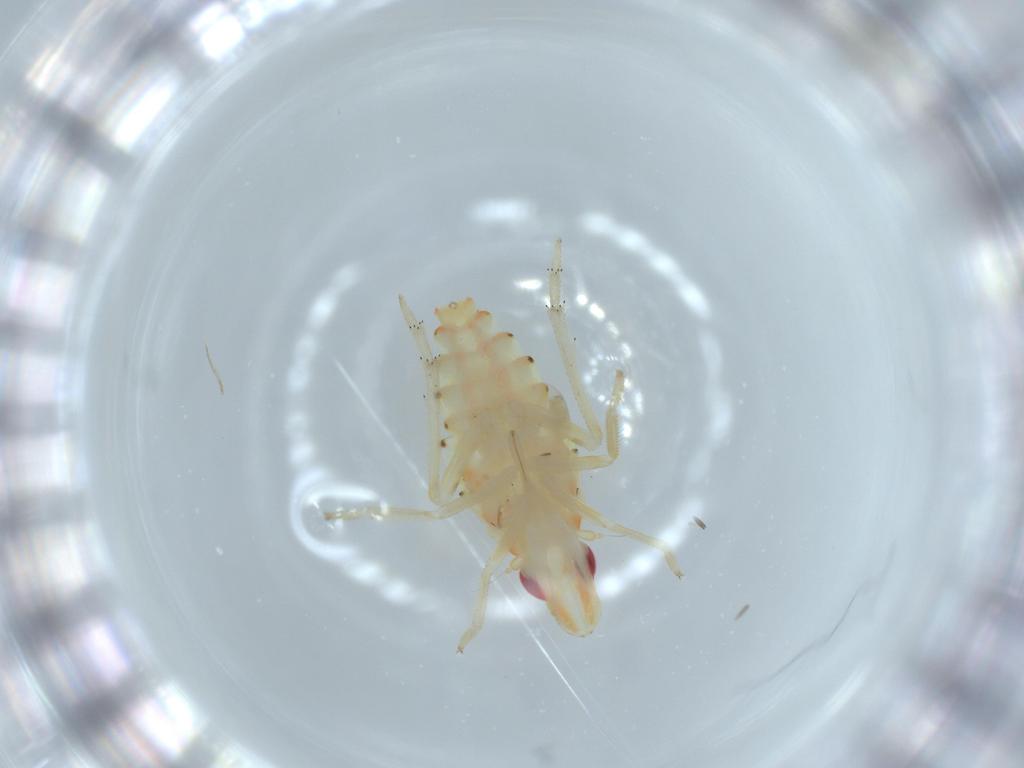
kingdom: Animalia
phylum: Arthropoda
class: Insecta
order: Hemiptera
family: Tropiduchidae
